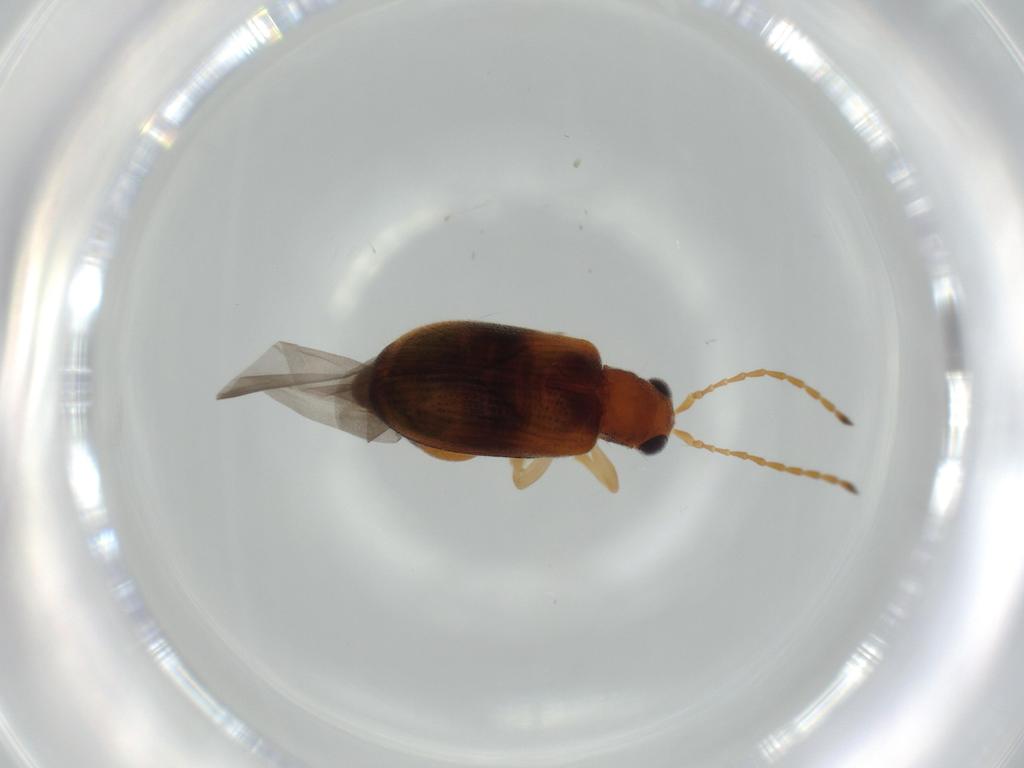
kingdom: Animalia
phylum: Arthropoda
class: Insecta
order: Coleoptera
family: Chrysomelidae
